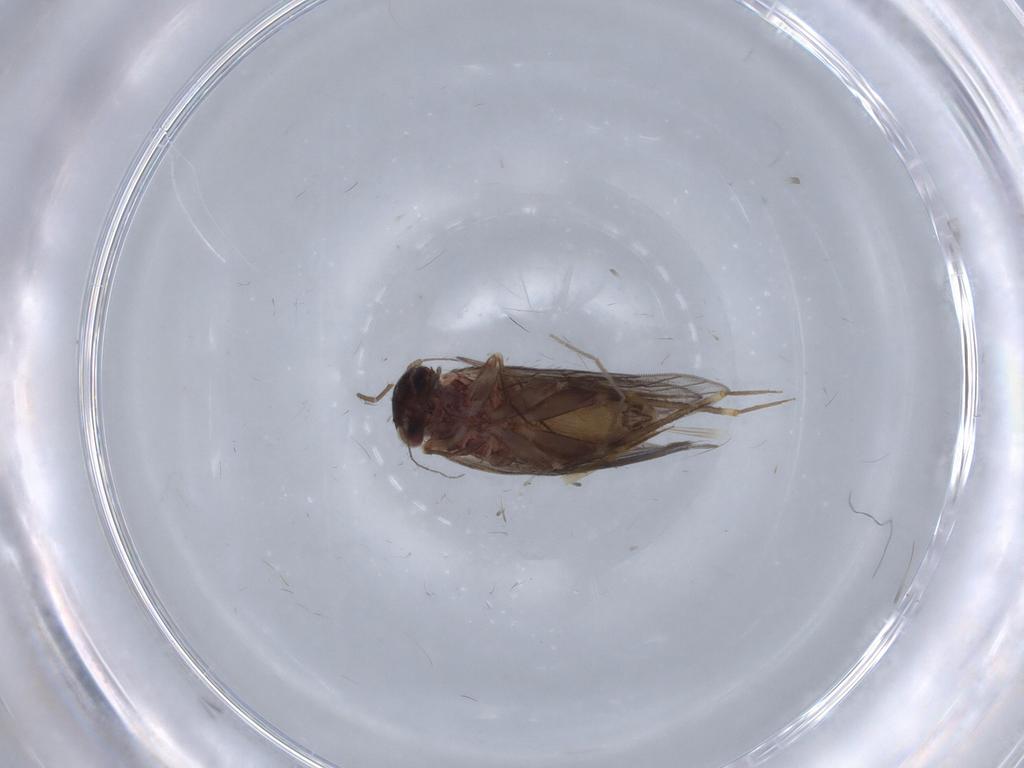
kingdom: Animalia
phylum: Arthropoda
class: Insecta
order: Psocodea
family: Lepidopsocidae
